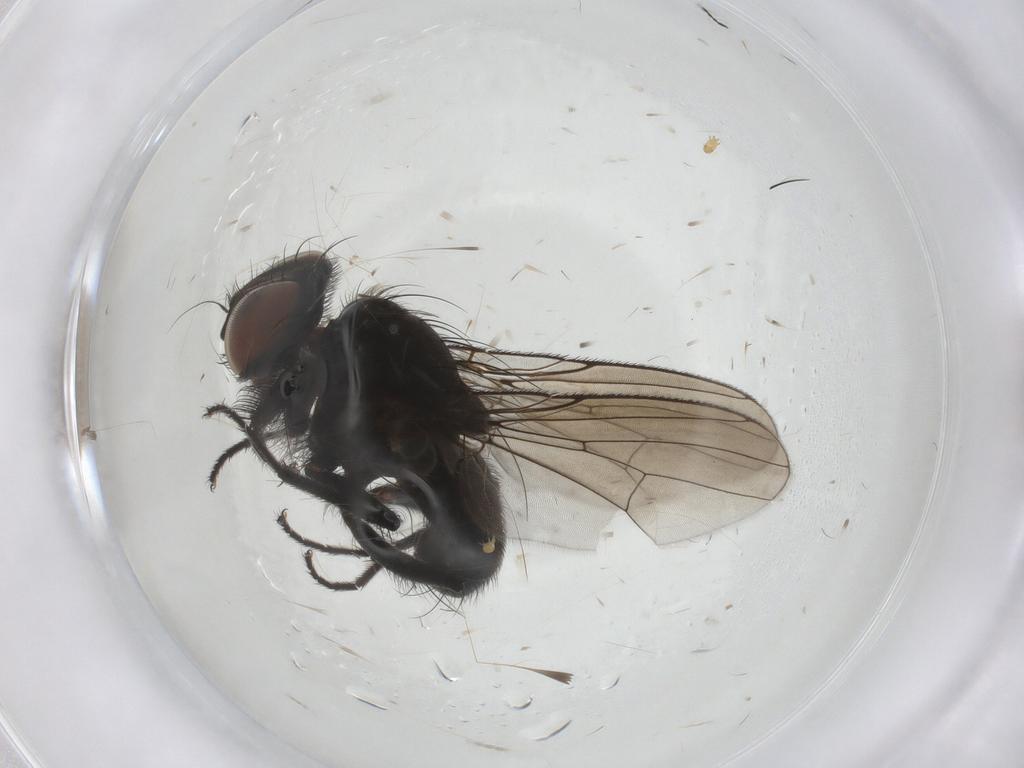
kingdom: Animalia
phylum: Arthropoda
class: Insecta
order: Diptera
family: Muscidae
